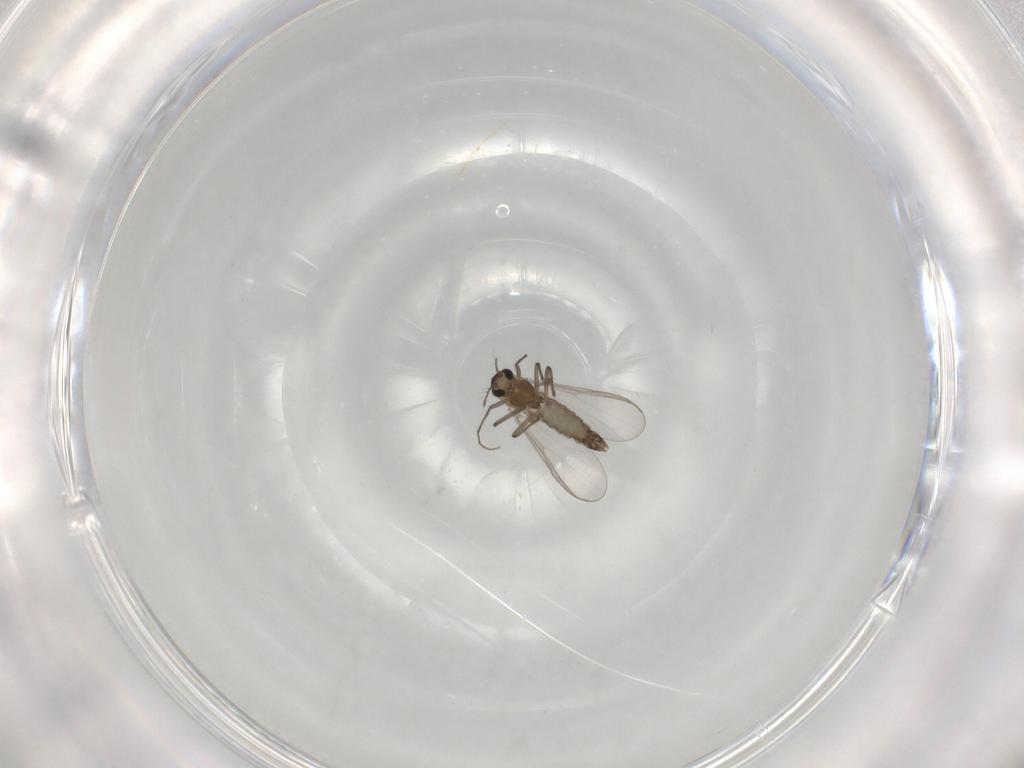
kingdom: Animalia
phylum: Arthropoda
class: Insecta
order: Diptera
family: Chironomidae
